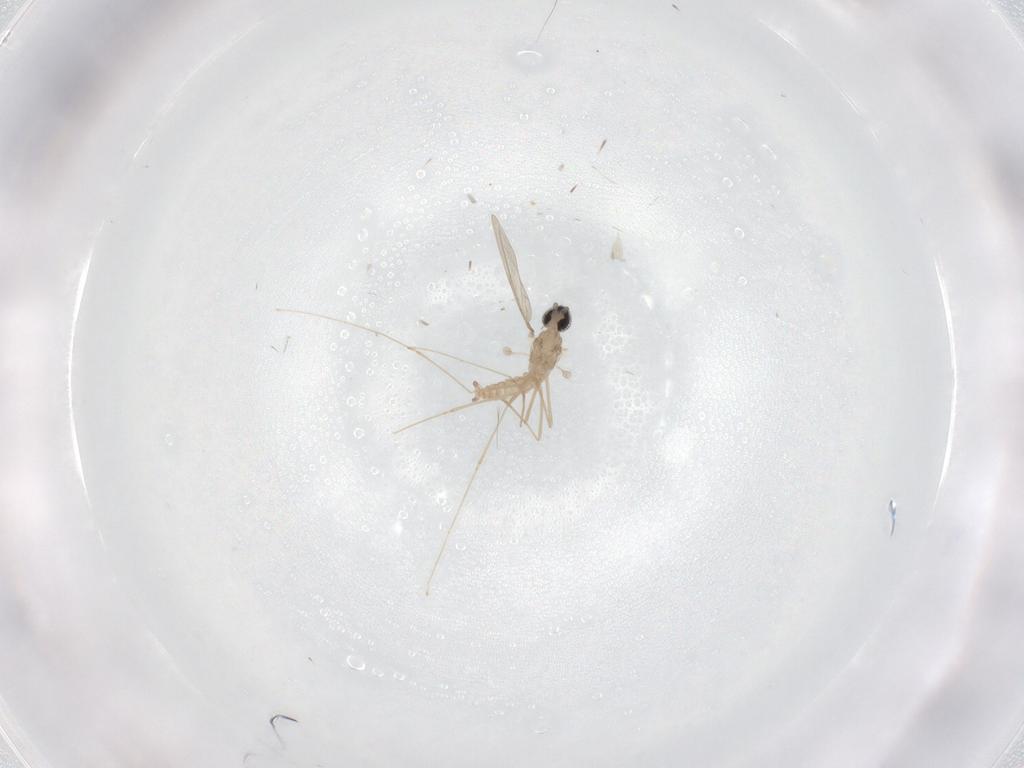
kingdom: Animalia
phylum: Arthropoda
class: Insecta
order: Diptera
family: Cecidomyiidae
